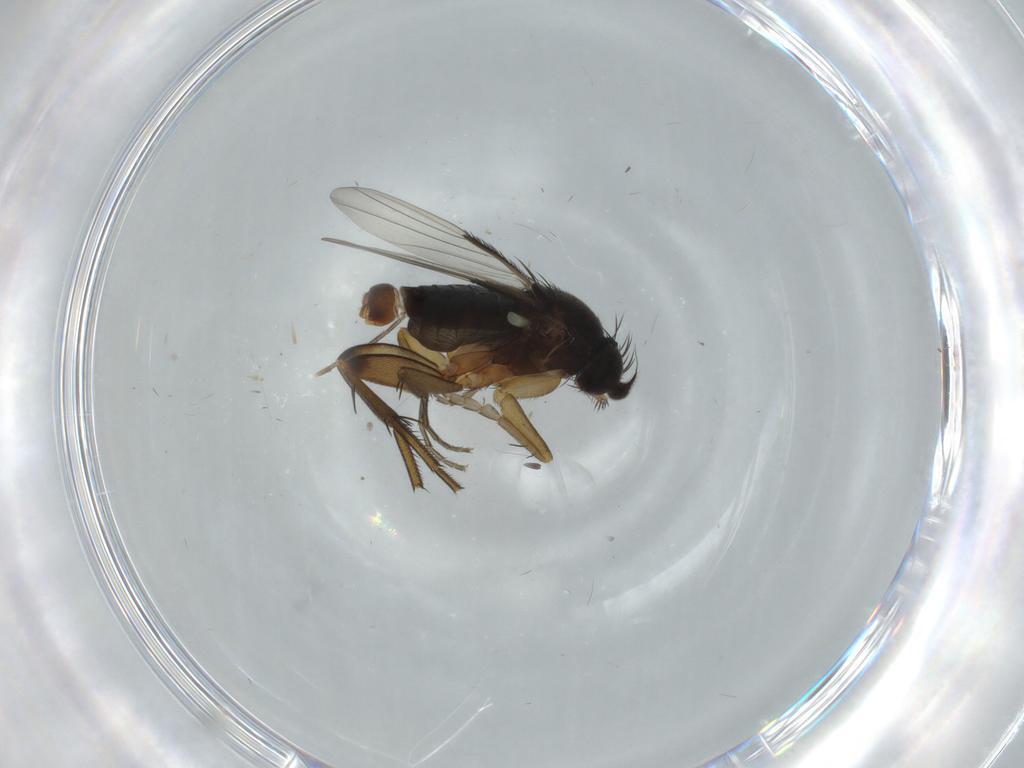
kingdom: Animalia
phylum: Arthropoda
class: Insecta
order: Diptera
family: Phoridae
